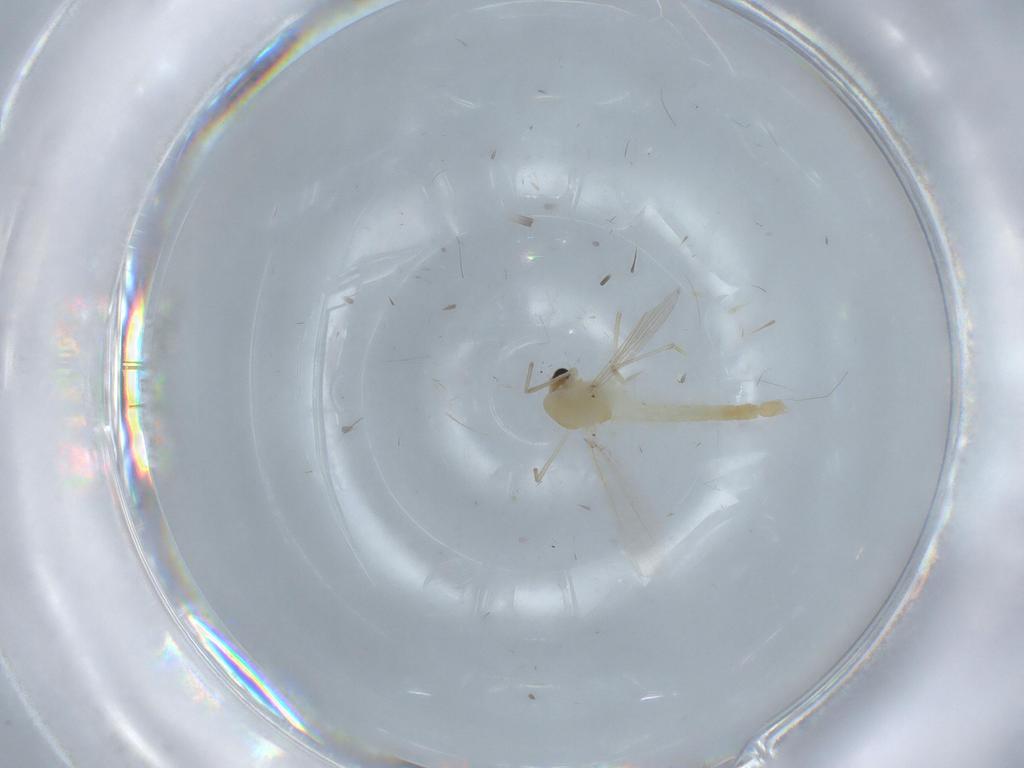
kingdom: Animalia
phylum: Arthropoda
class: Insecta
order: Diptera
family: Chironomidae
